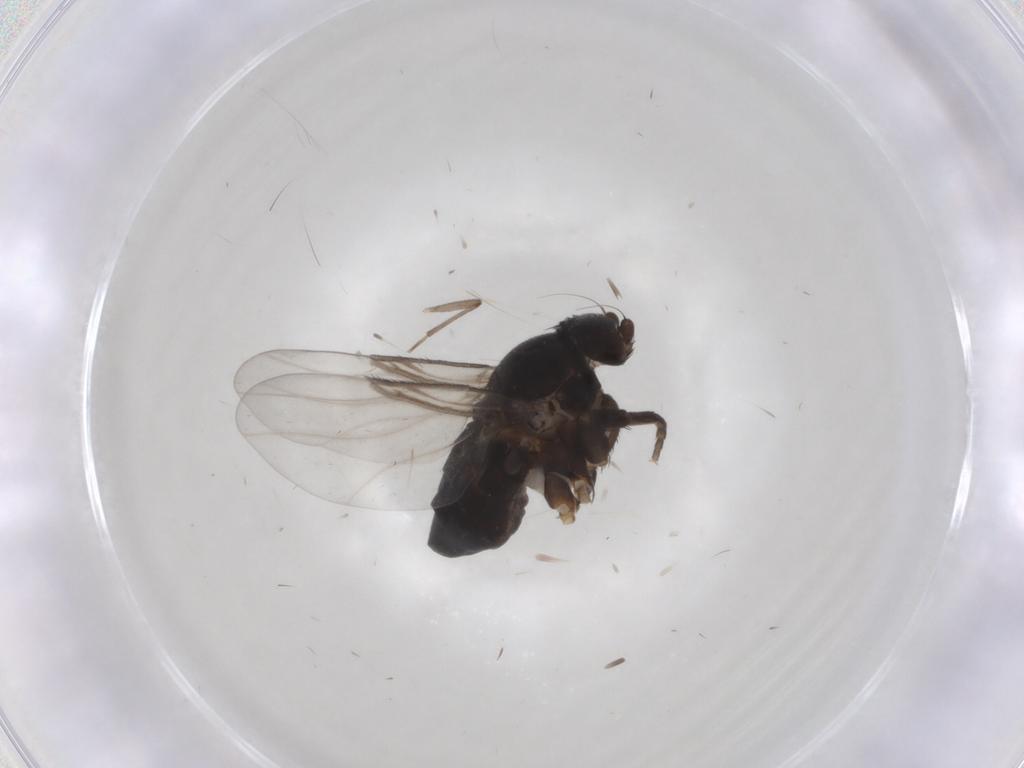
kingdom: Animalia
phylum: Arthropoda
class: Insecta
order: Diptera
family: Phoridae
